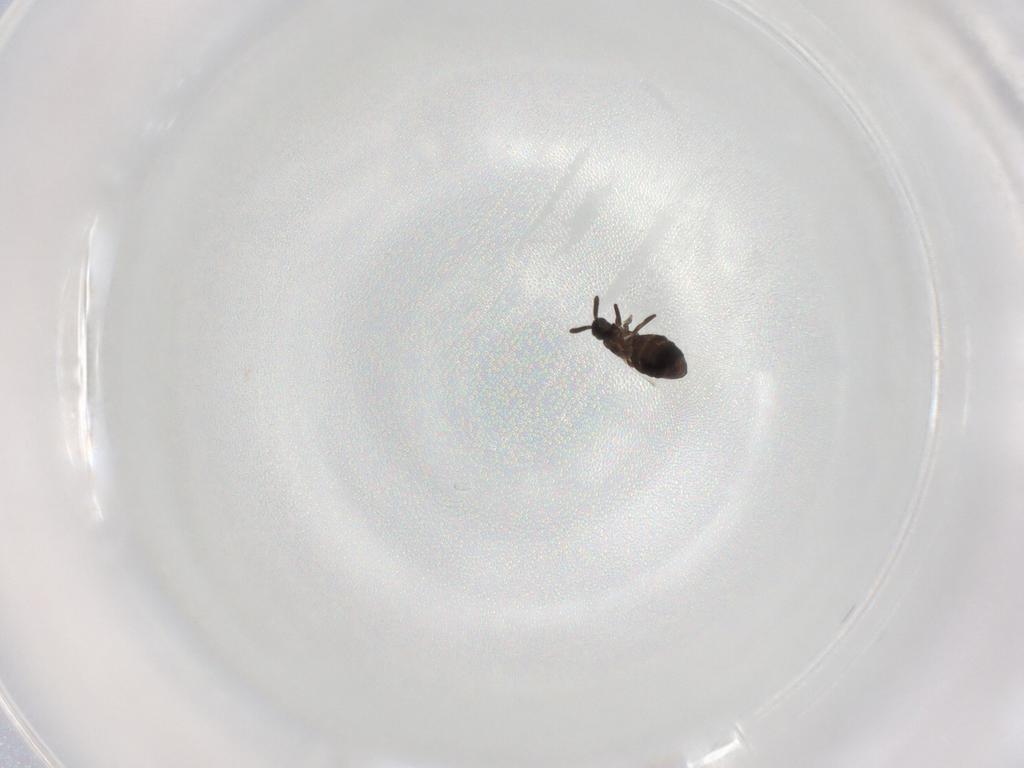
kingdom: Animalia
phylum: Arthropoda
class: Insecta
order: Diptera
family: Scatopsidae
